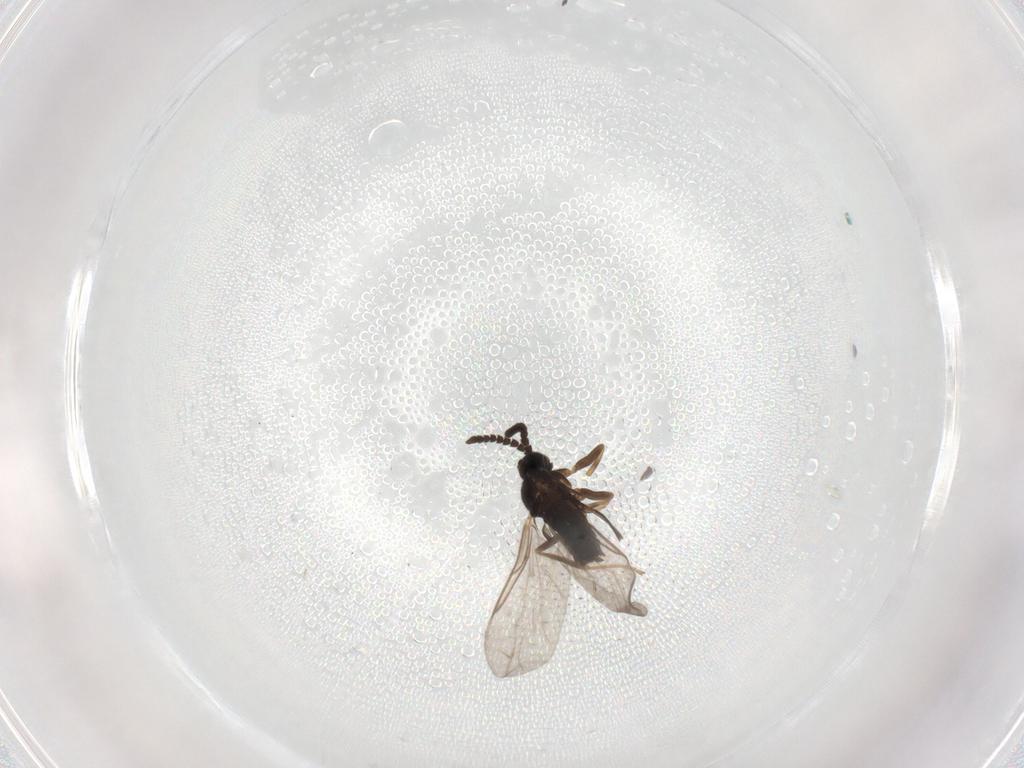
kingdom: Animalia
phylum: Arthropoda
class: Insecta
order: Diptera
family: Scatopsidae
